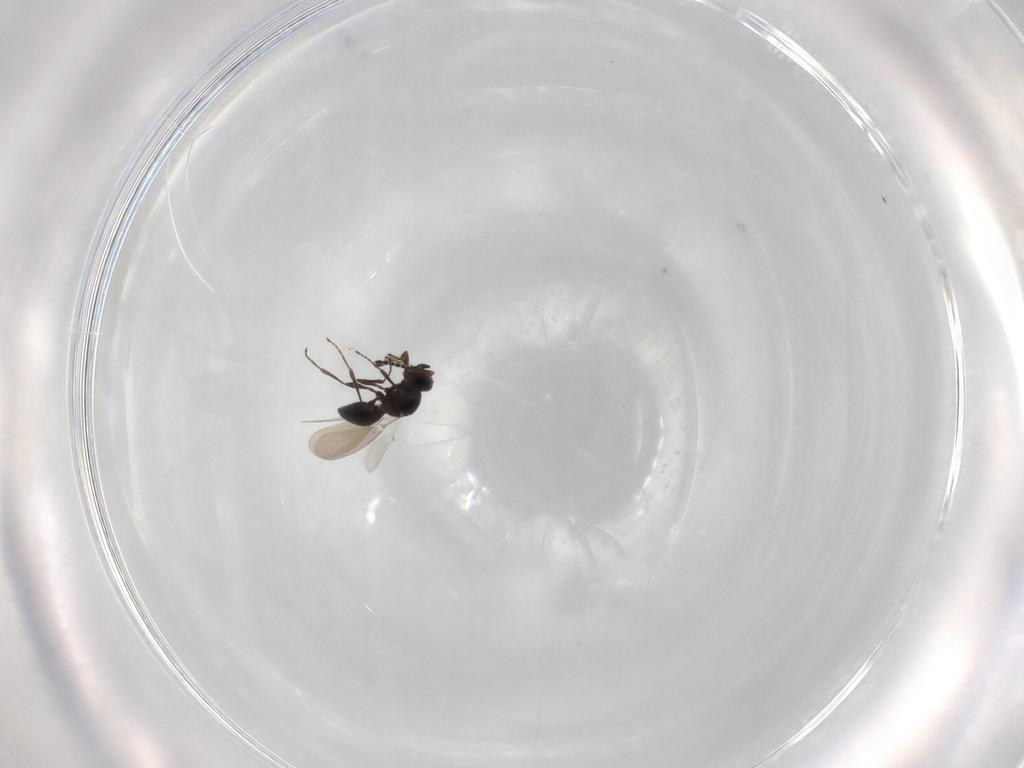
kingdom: Animalia
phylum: Arthropoda
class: Insecta
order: Hymenoptera
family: Platygastridae
